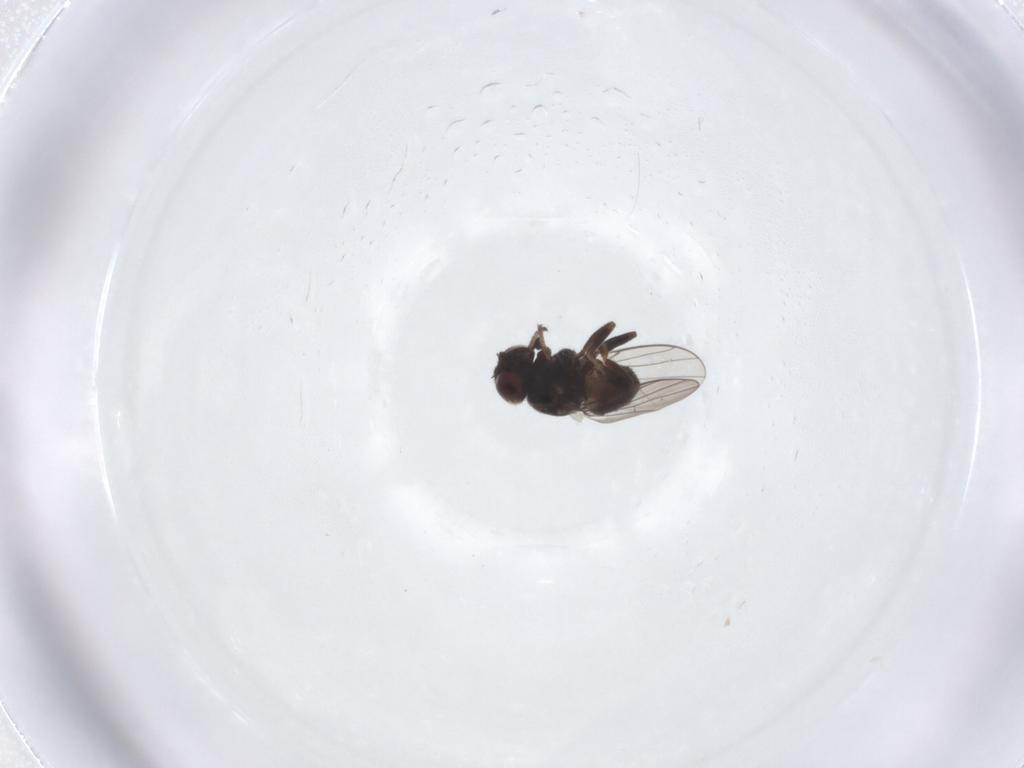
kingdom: Animalia
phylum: Arthropoda
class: Insecta
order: Diptera
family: Chloropidae
